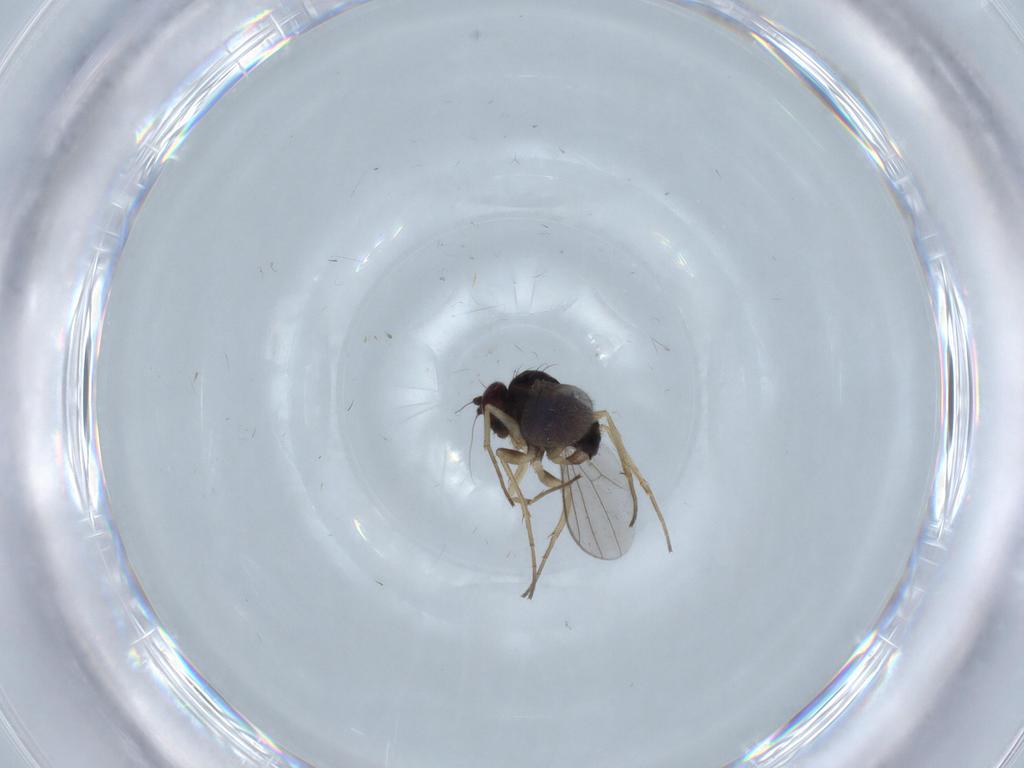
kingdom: Animalia
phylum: Arthropoda
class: Insecta
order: Diptera
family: Dolichopodidae
